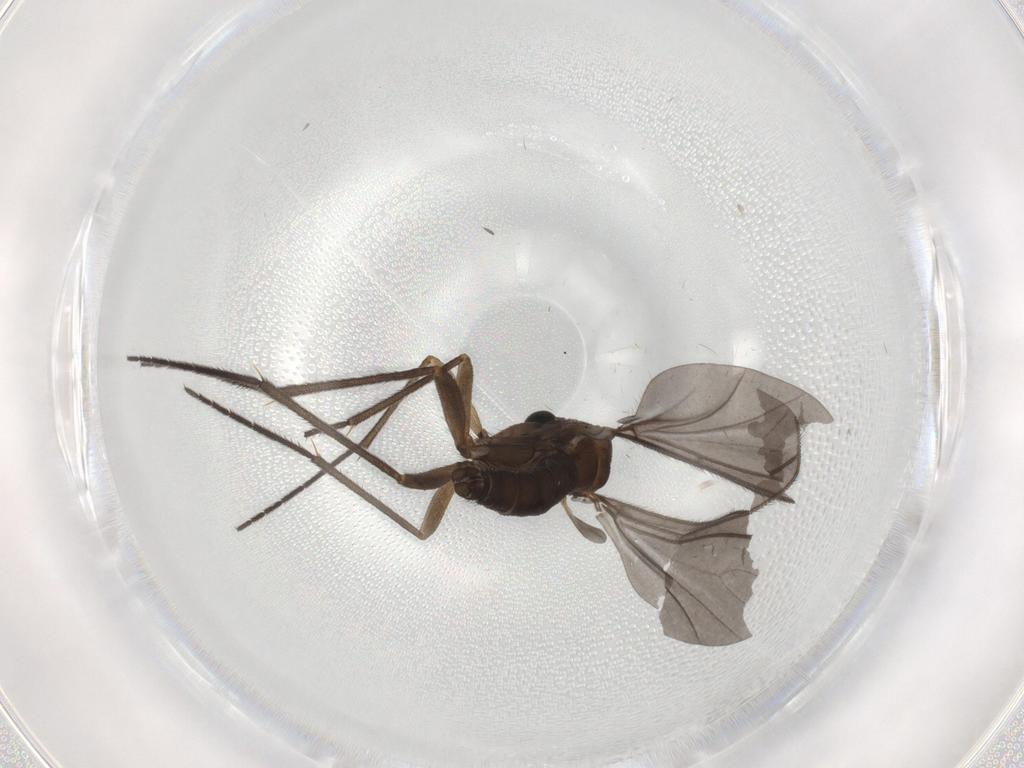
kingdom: Animalia
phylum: Arthropoda
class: Insecta
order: Diptera
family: Sciaridae
